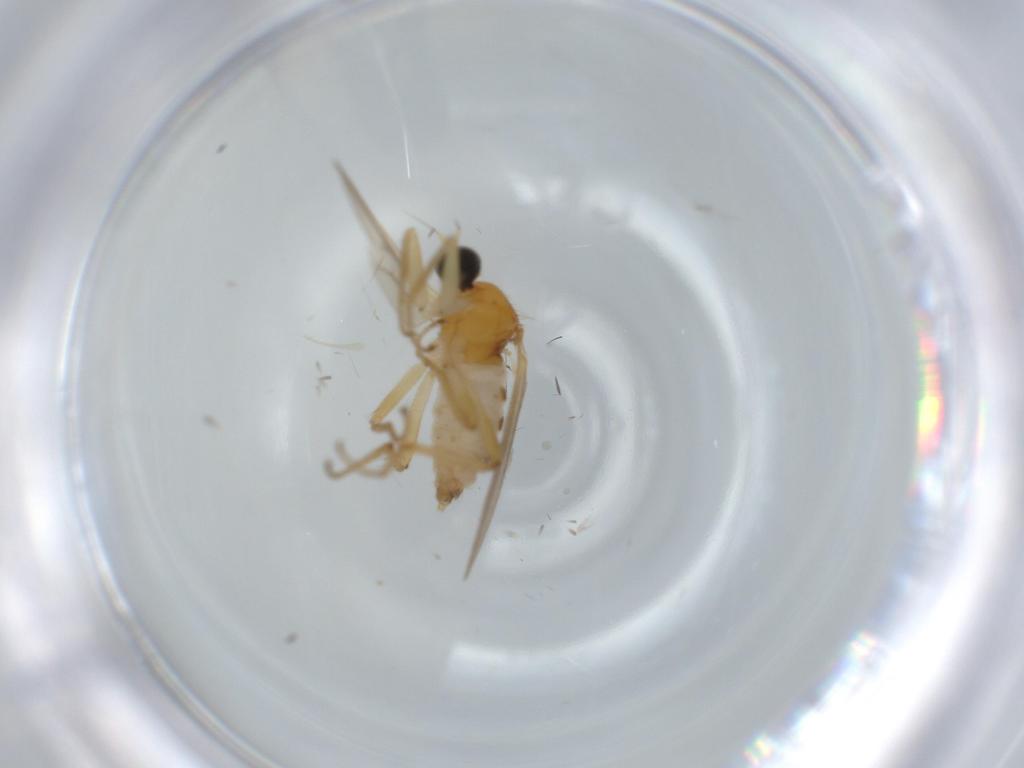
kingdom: Animalia
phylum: Arthropoda
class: Insecta
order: Diptera
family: Hybotidae
